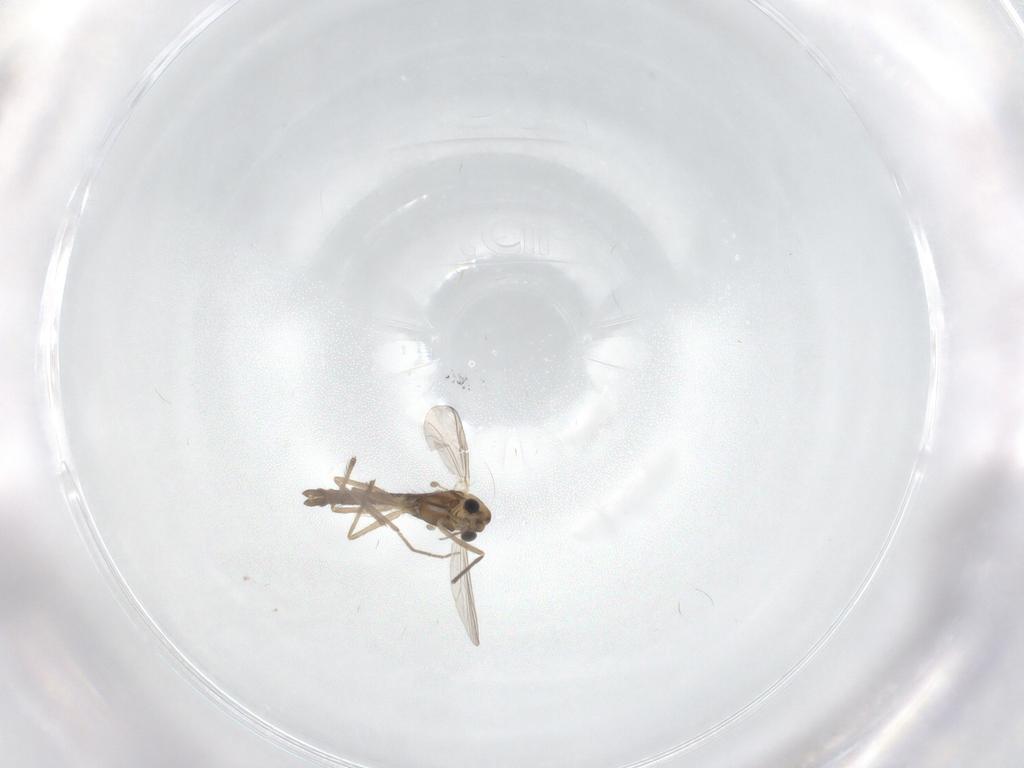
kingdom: Animalia
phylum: Arthropoda
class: Insecta
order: Diptera
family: Chironomidae
